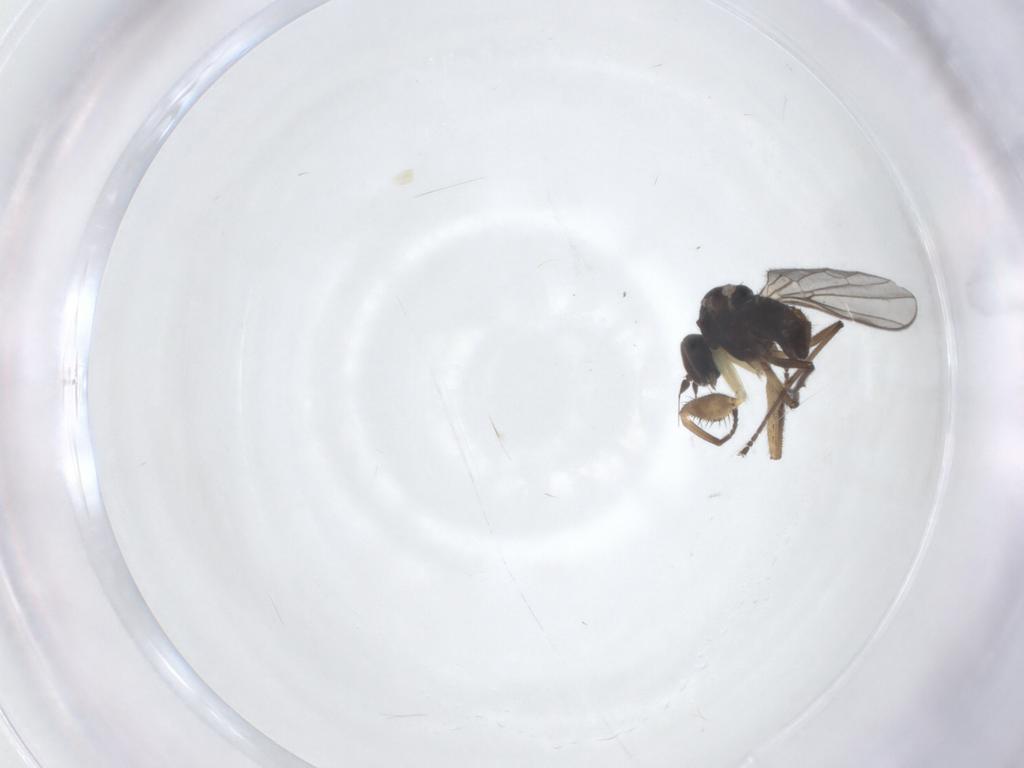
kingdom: Animalia
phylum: Arthropoda
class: Insecta
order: Diptera
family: Empididae
